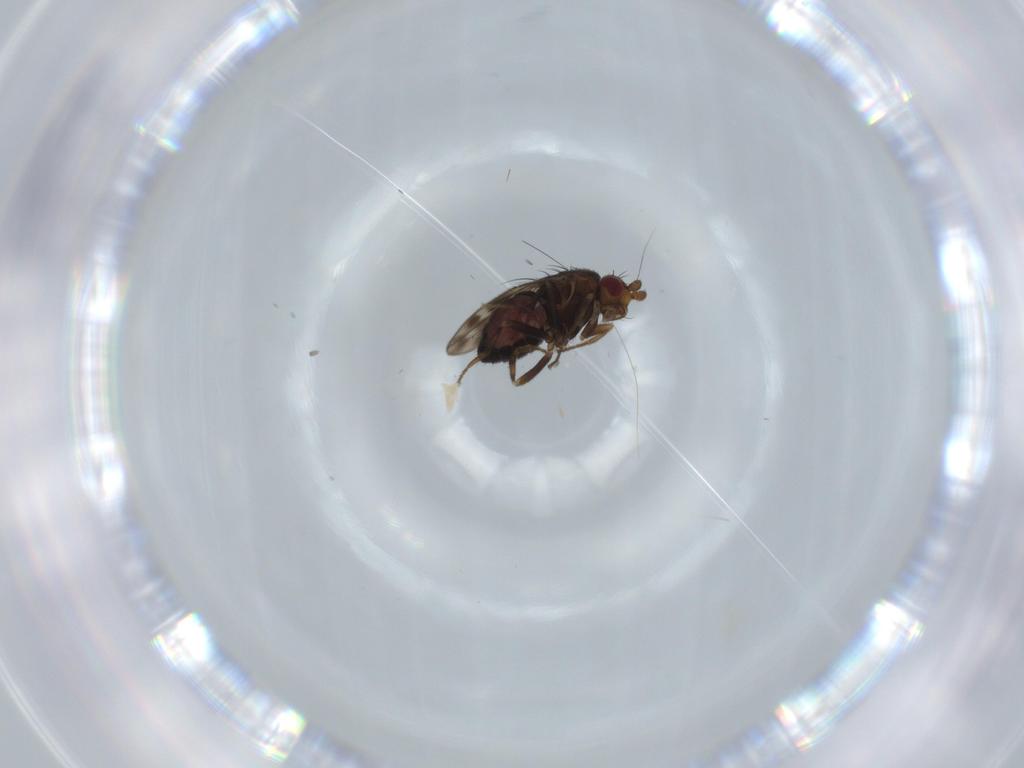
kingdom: Animalia
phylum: Arthropoda
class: Insecta
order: Diptera
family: Sphaeroceridae
